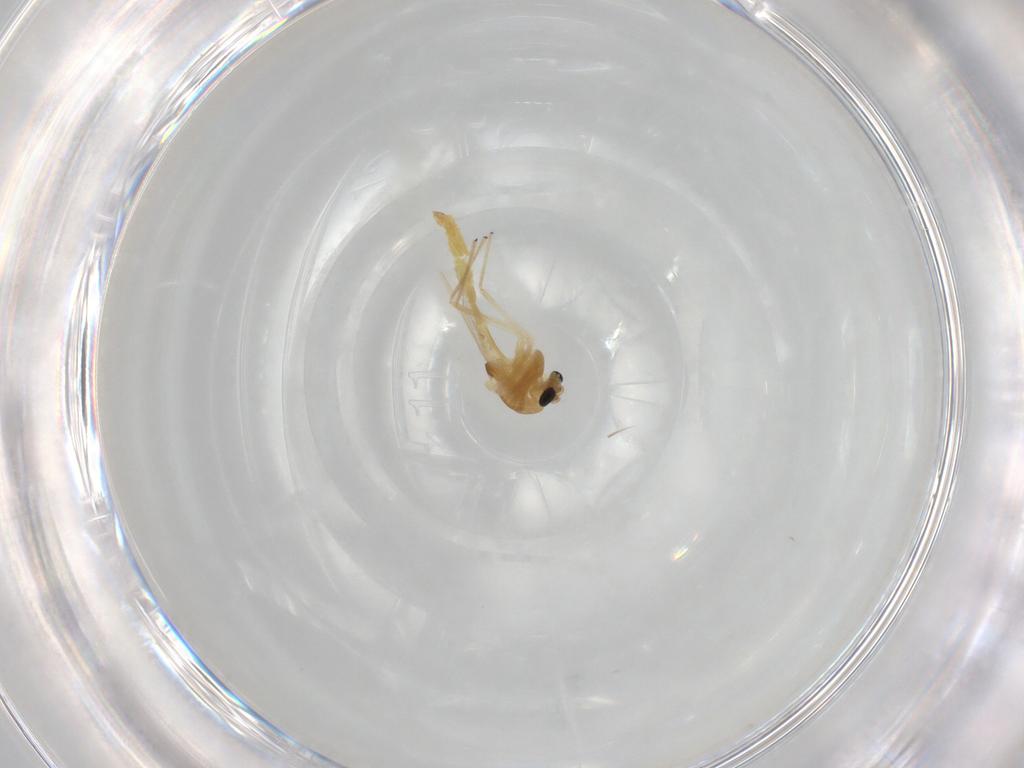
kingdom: Animalia
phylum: Arthropoda
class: Insecta
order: Diptera
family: Chironomidae
